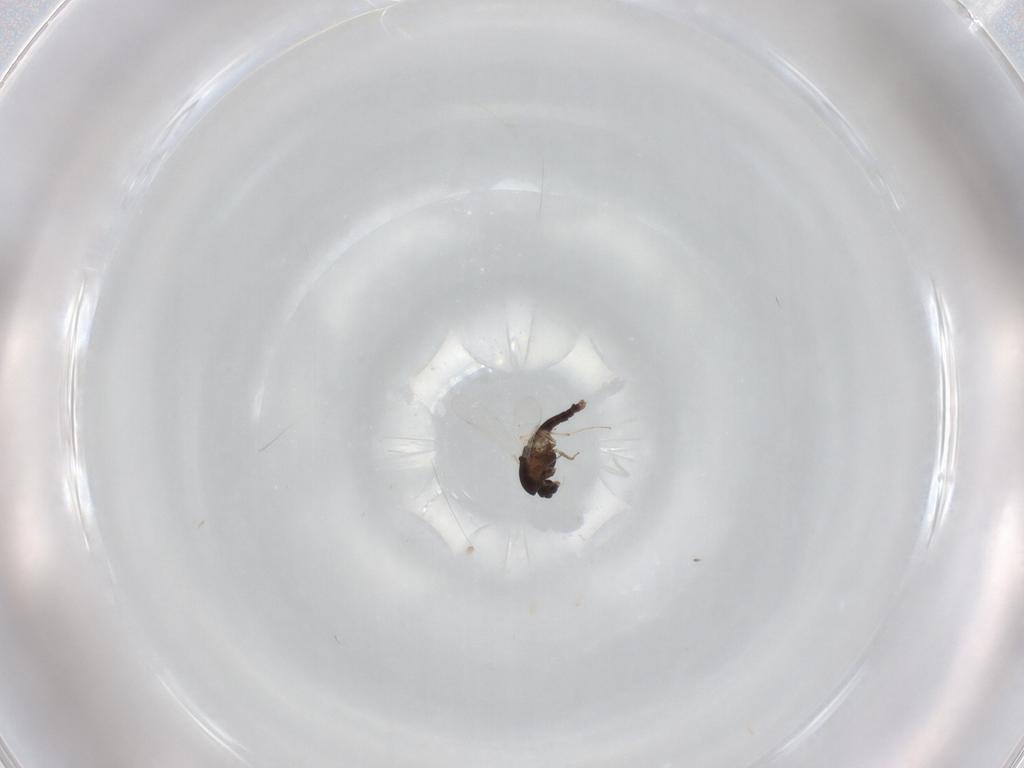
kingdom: Animalia
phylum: Arthropoda
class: Insecta
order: Diptera
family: Chironomidae
